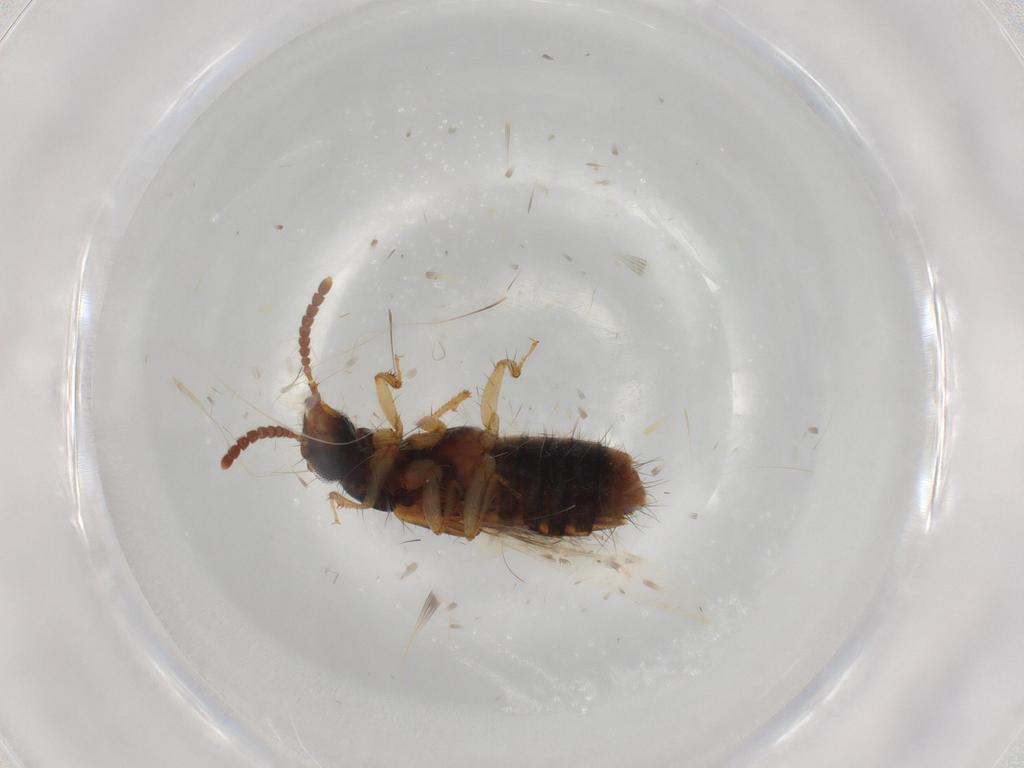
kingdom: Animalia
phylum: Arthropoda
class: Insecta
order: Coleoptera
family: Staphylinidae
